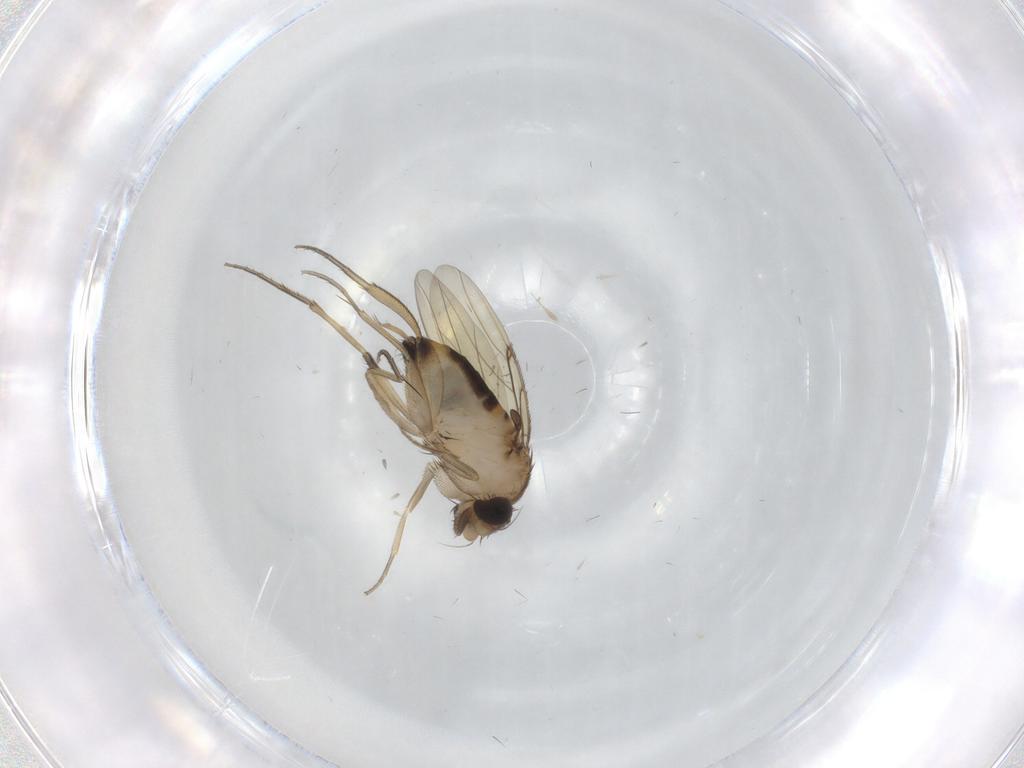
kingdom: Animalia
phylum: Arthropoda
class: Insecta
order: Diptera
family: Phoridae
